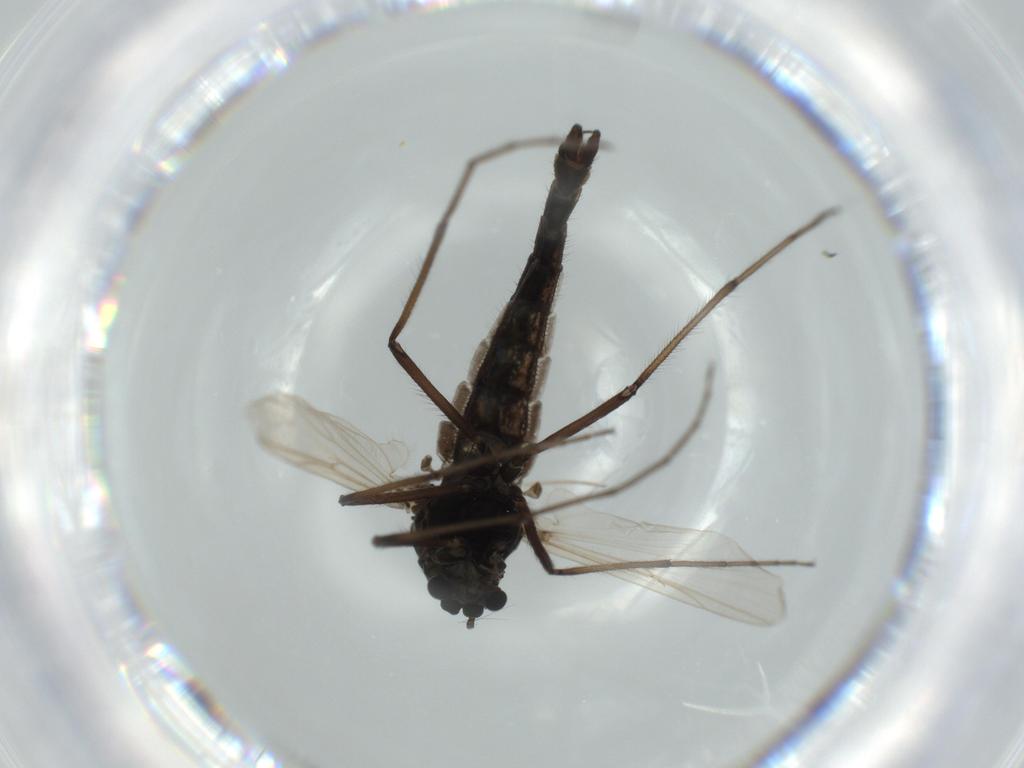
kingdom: Animalia
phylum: Arthropoda
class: Insecta
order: Diptera
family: Chironomidae
